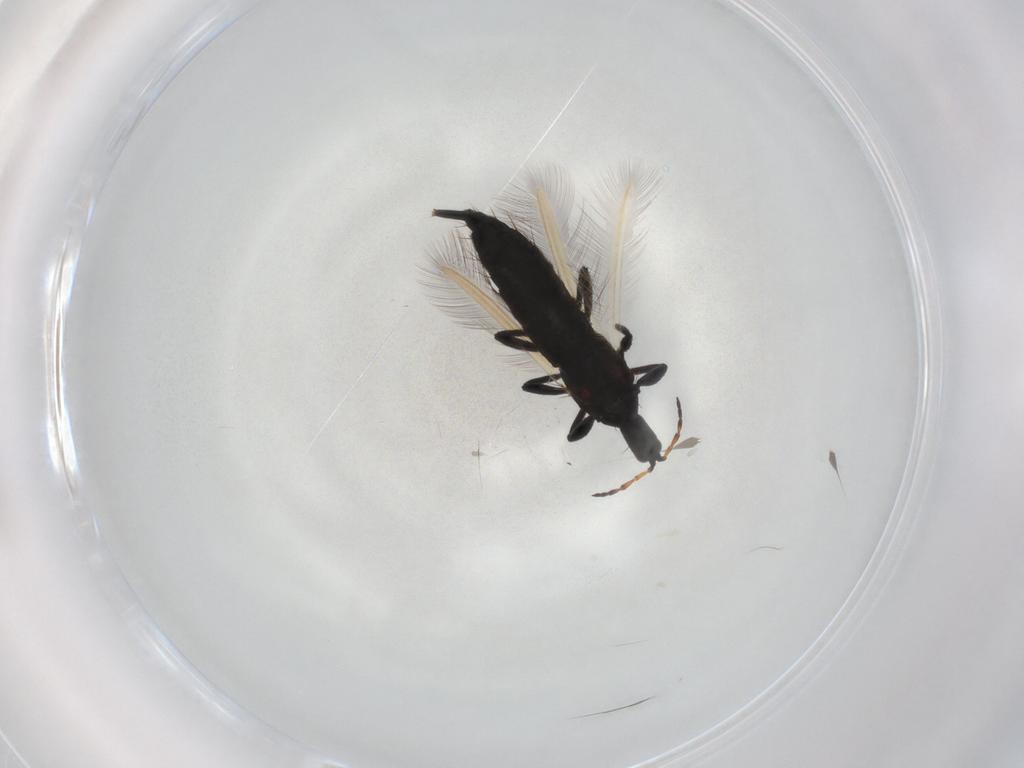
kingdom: Animalia
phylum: Arthropoda
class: Insecta
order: Thysanoptera
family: Phlaeothripidae
